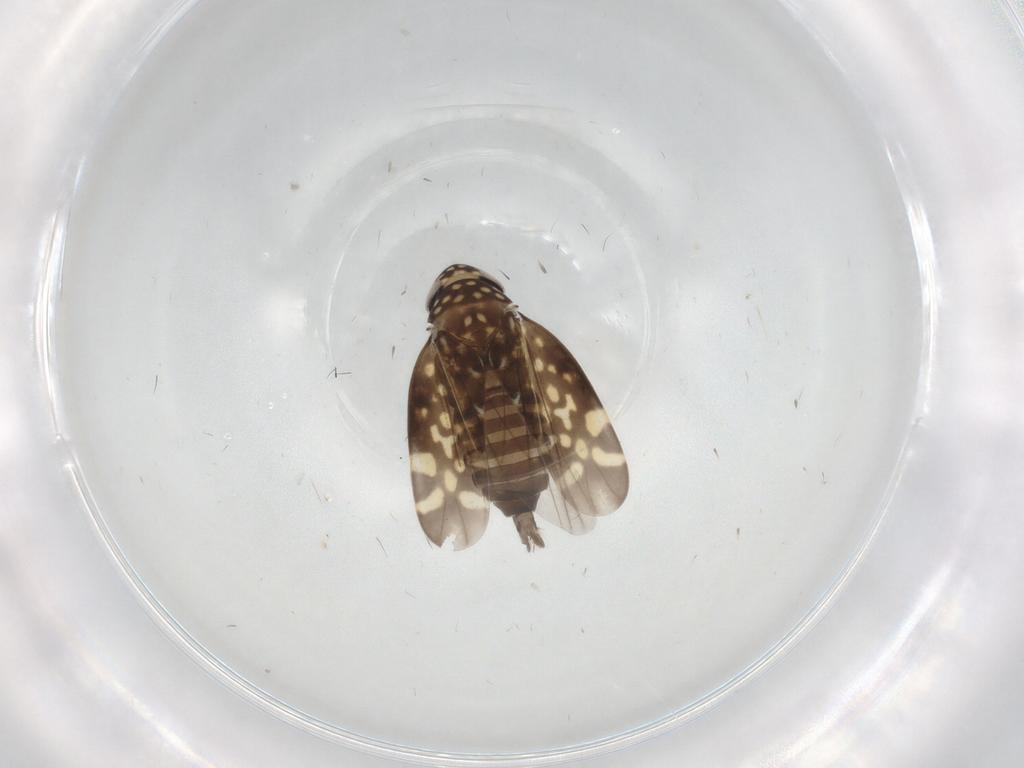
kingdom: Animalia
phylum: Arthropoda
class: Insecta
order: Hemiptera
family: Cicadellidae
